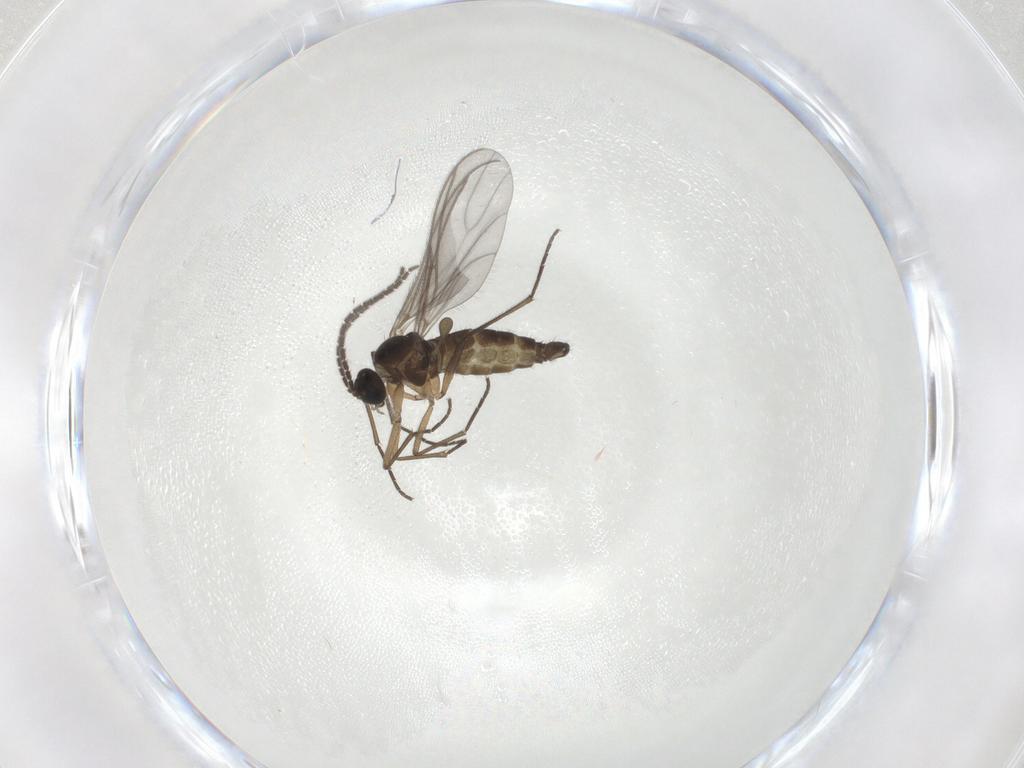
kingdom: Animalia
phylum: Arthropoda
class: Insecta
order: Diptera
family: Sciaridae
